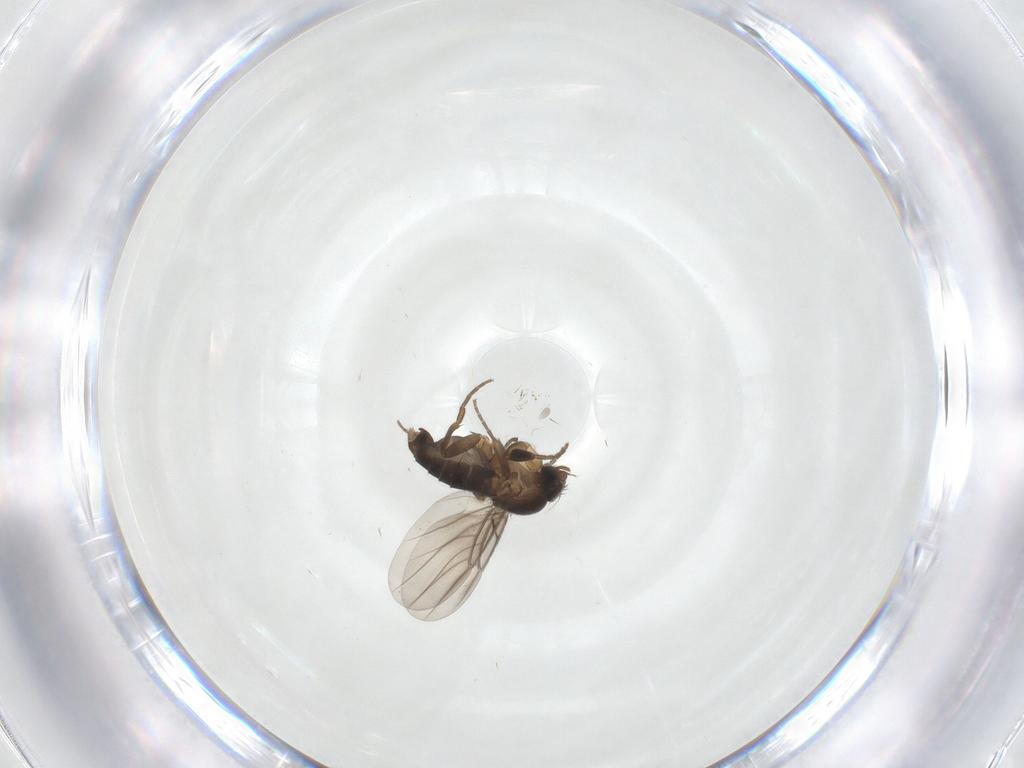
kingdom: Animalia
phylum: Arthropoda
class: Insecta
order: Diptera
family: Phoridae
